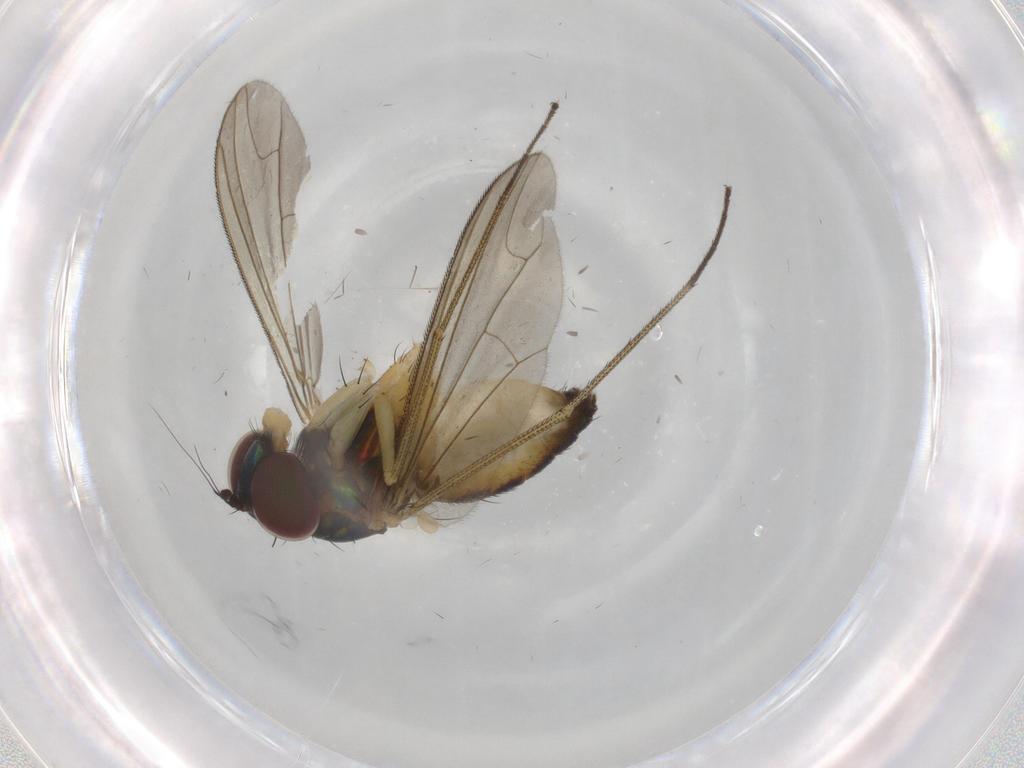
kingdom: Animalia
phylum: Arthropoda
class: Insecta
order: Diptera
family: Dolichopodidae
